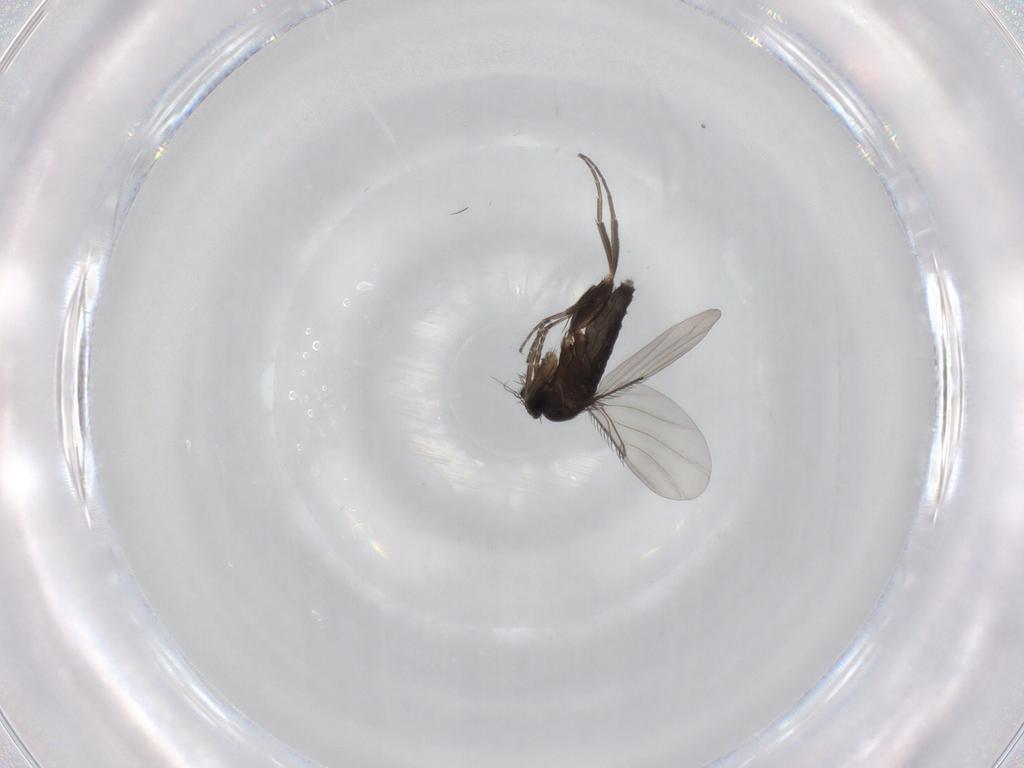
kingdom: Animalia
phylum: Arthropoda
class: Insecta
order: Diptera
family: Phoridae
